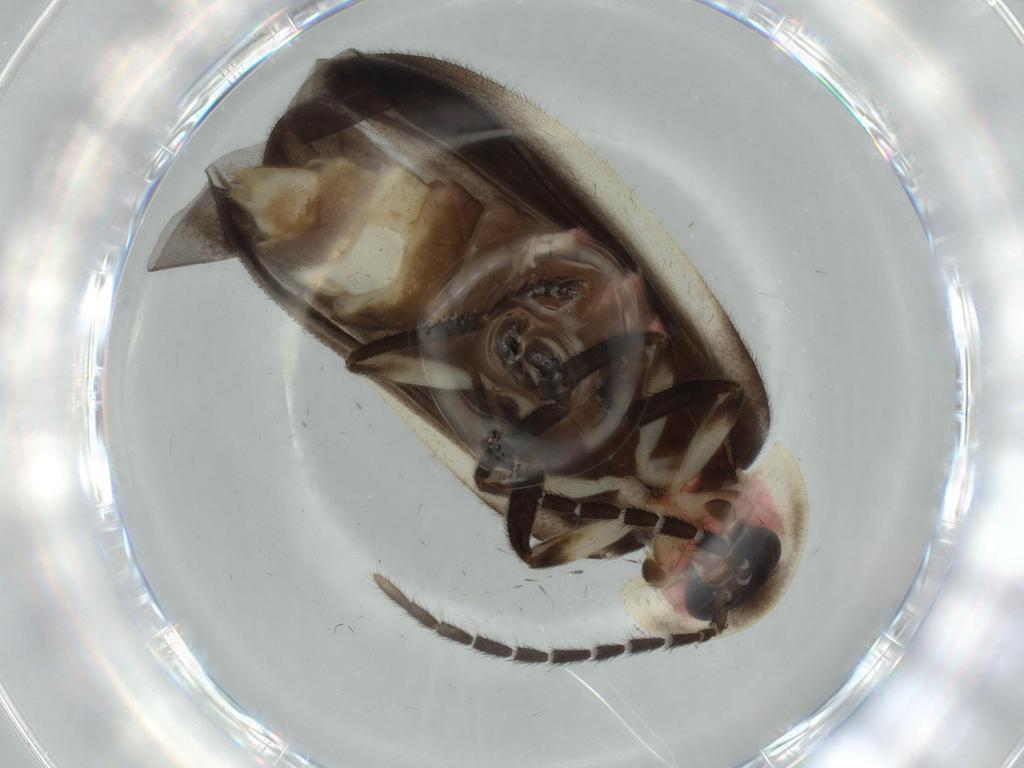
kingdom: Animalia
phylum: Arthropoda
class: Insecta
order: Coleoptera
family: Lampyridae
